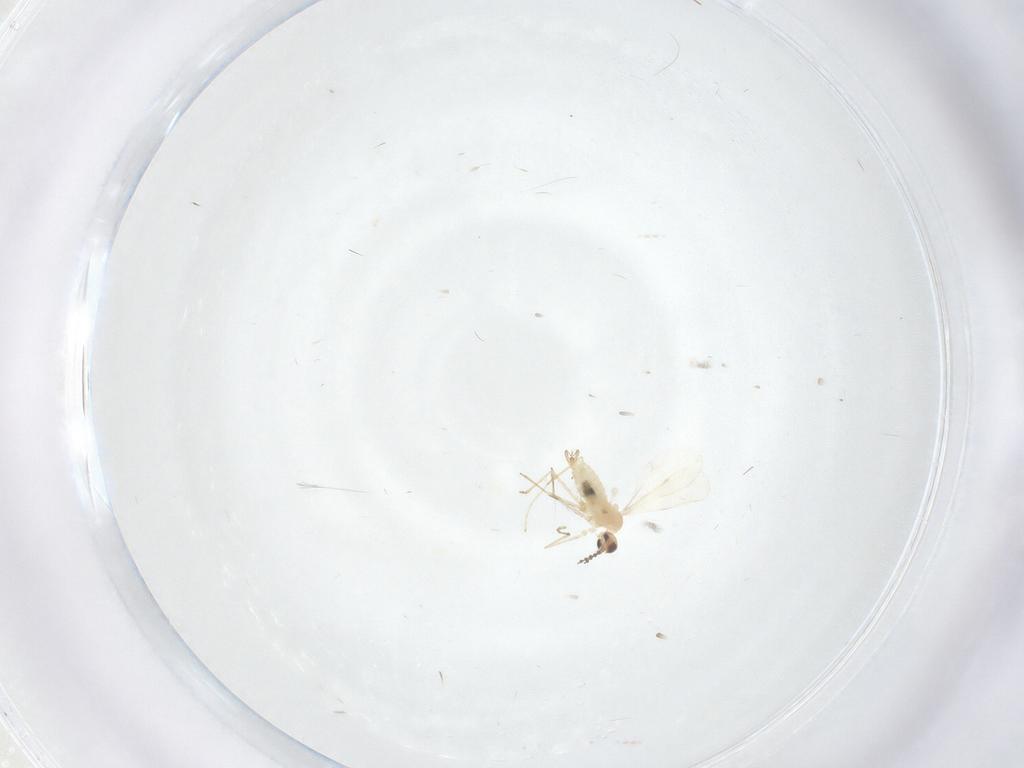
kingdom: Animalia
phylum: Arthropoda
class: Insecta
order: Diptera
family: Cecidomyiidae
